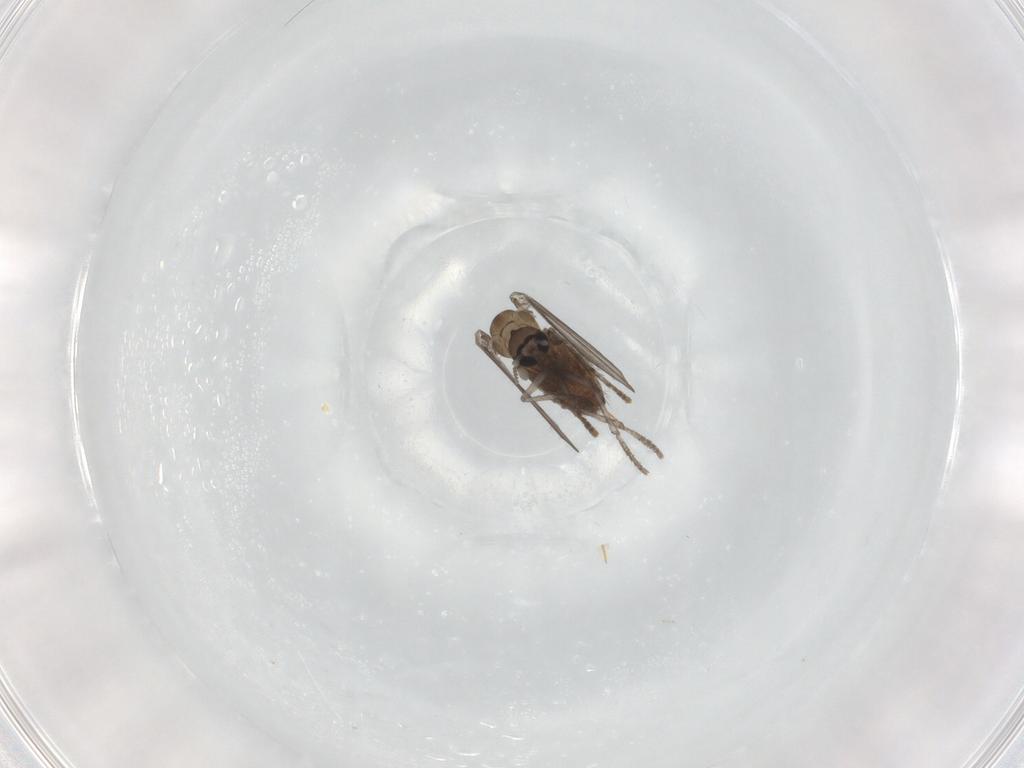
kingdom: Animalia
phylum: Arthropoda
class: Insecta
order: Diptera
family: Psychodidae
